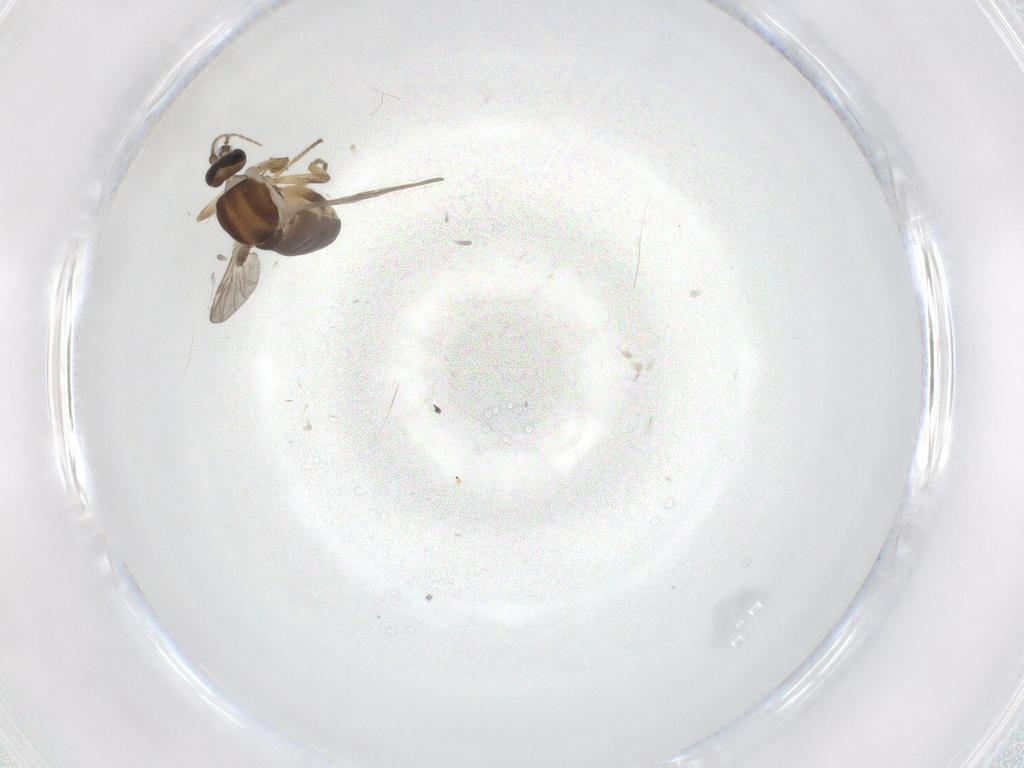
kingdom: Animalia
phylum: Arthropoda
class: Insecta
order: Diptera
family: Ceratopogonidae
